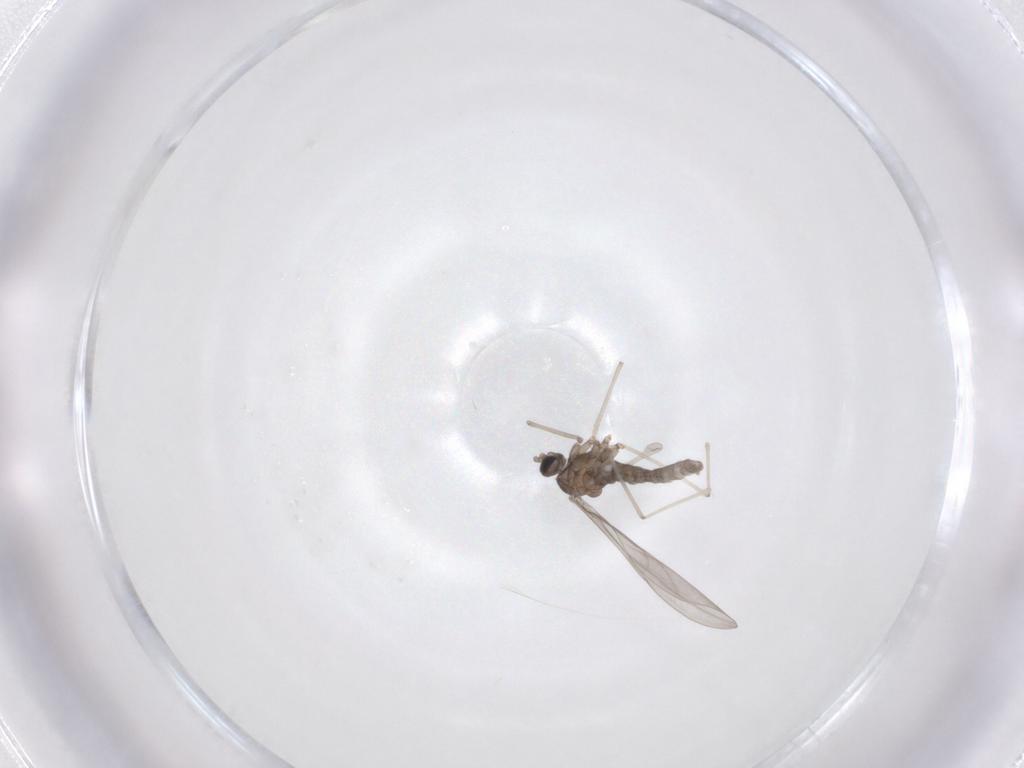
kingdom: Animalia
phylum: Arthropoda
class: Insecta
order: Diptera
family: Cecidomyiidae
